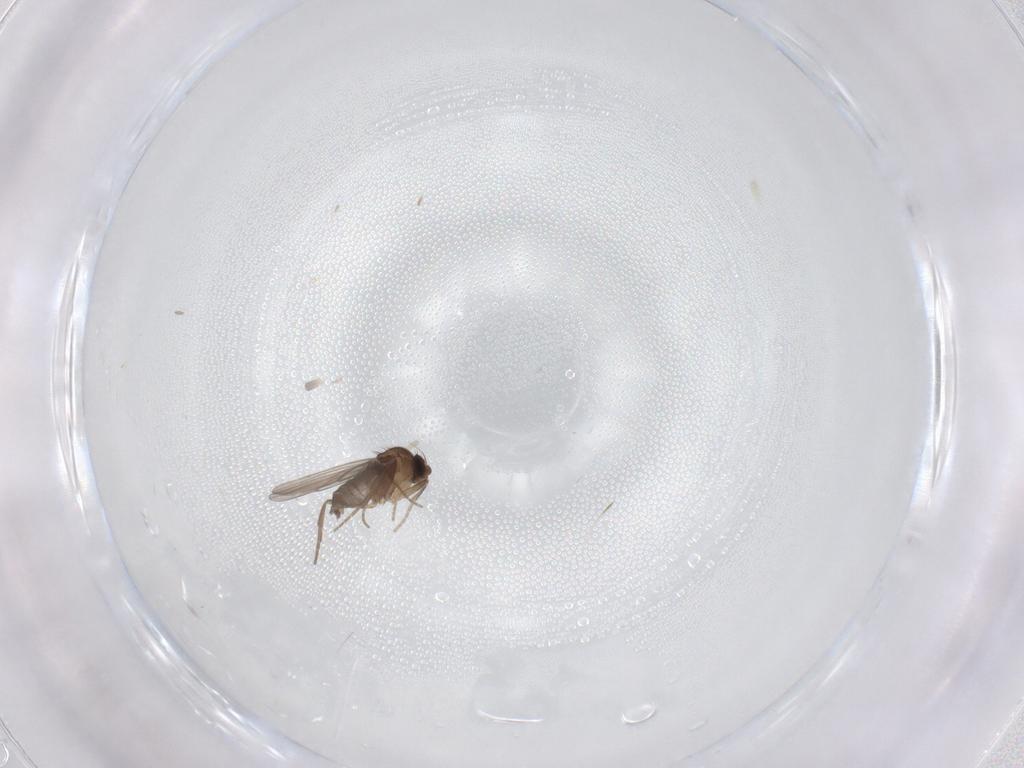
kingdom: Animalia
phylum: Arthropoda
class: Insecta
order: Diptera
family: Phoridae
